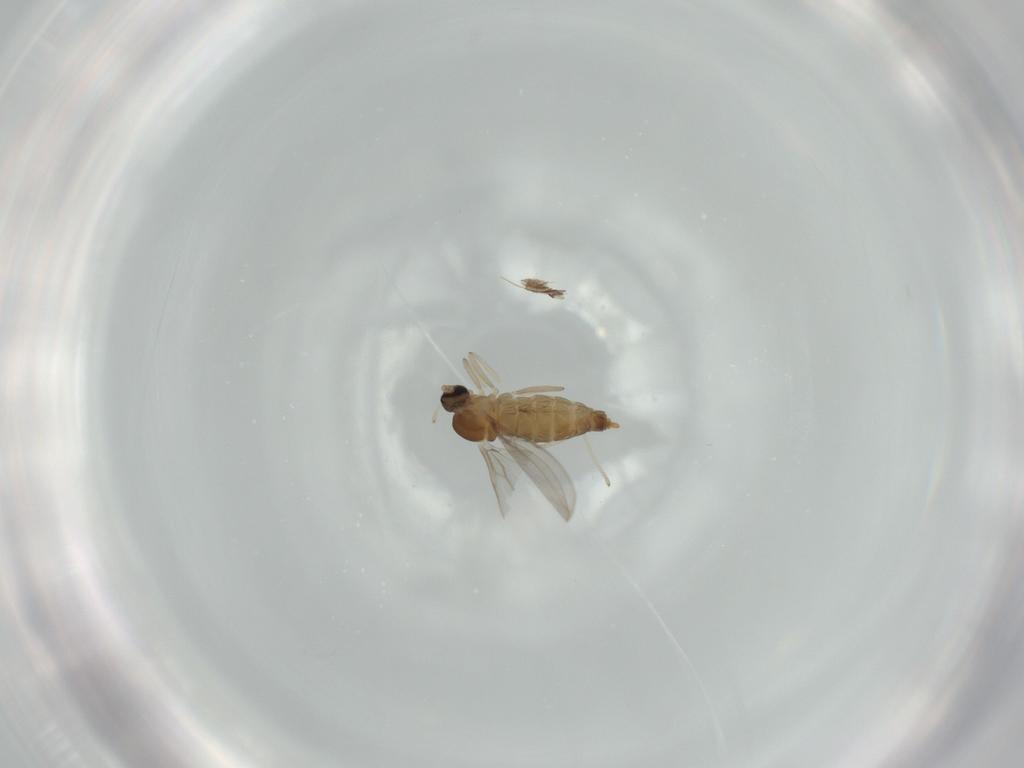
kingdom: Animalia
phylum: Arthropoda
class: Insecta
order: Diptera
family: Cecidomyiidae
